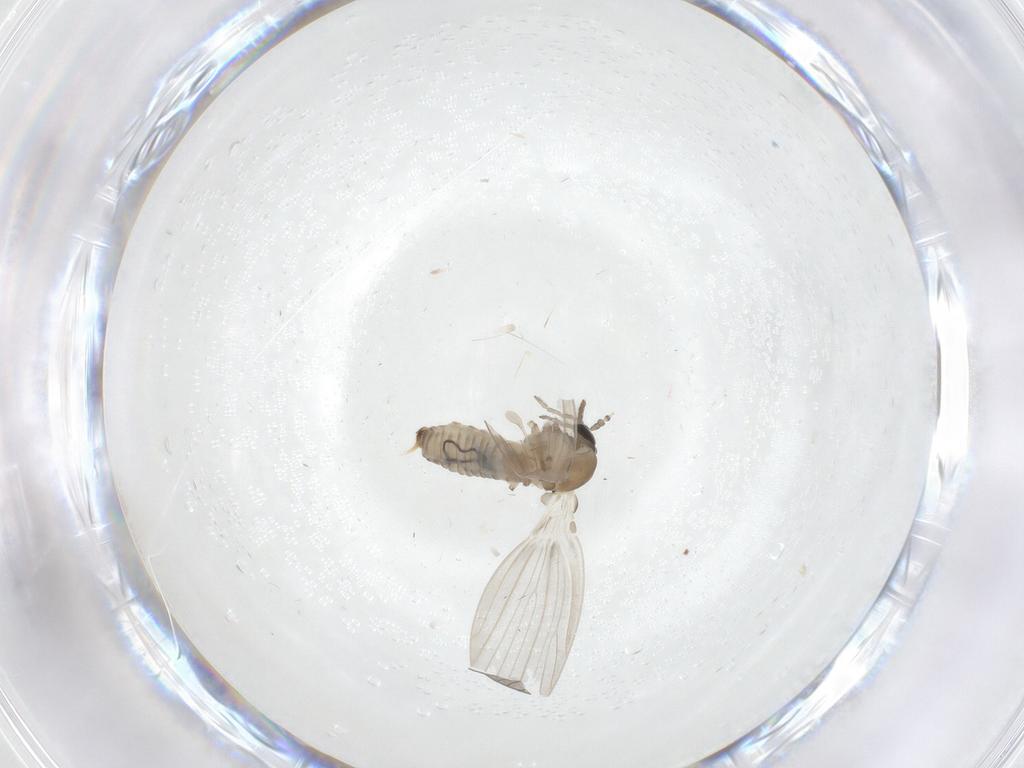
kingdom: Animalia
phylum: Arthropoda
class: Insecta
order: Diptera
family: Psychodidae
